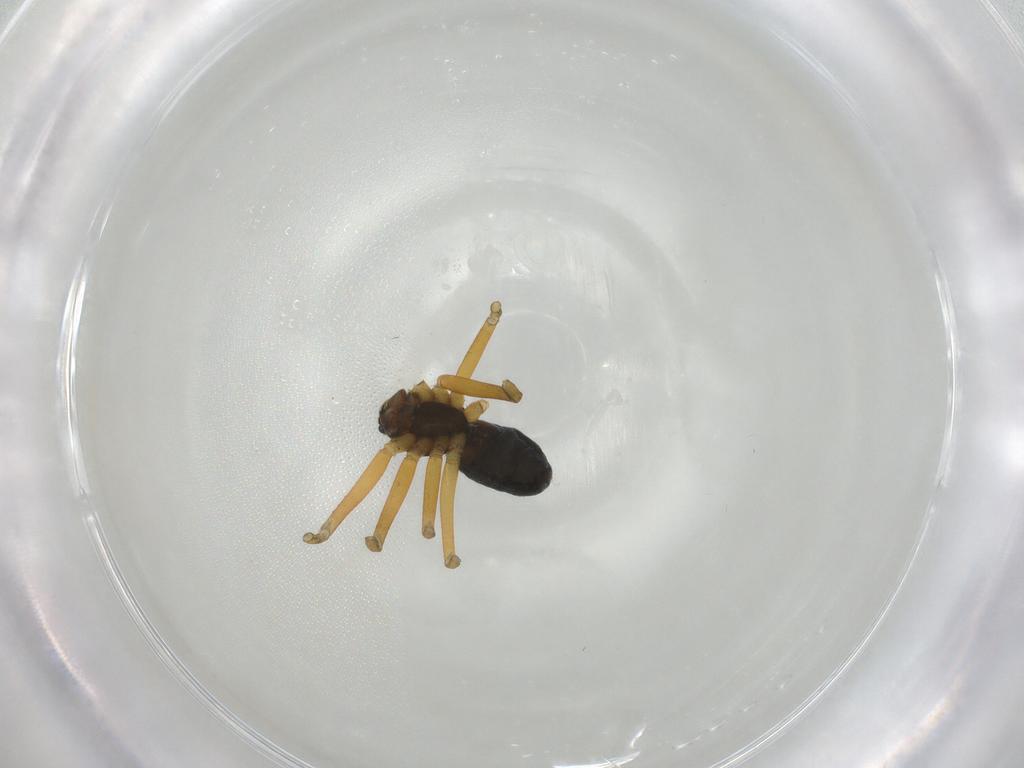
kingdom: Animalia
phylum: Arthropoda
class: Arachnida
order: Araneae
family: Linyphiidae
